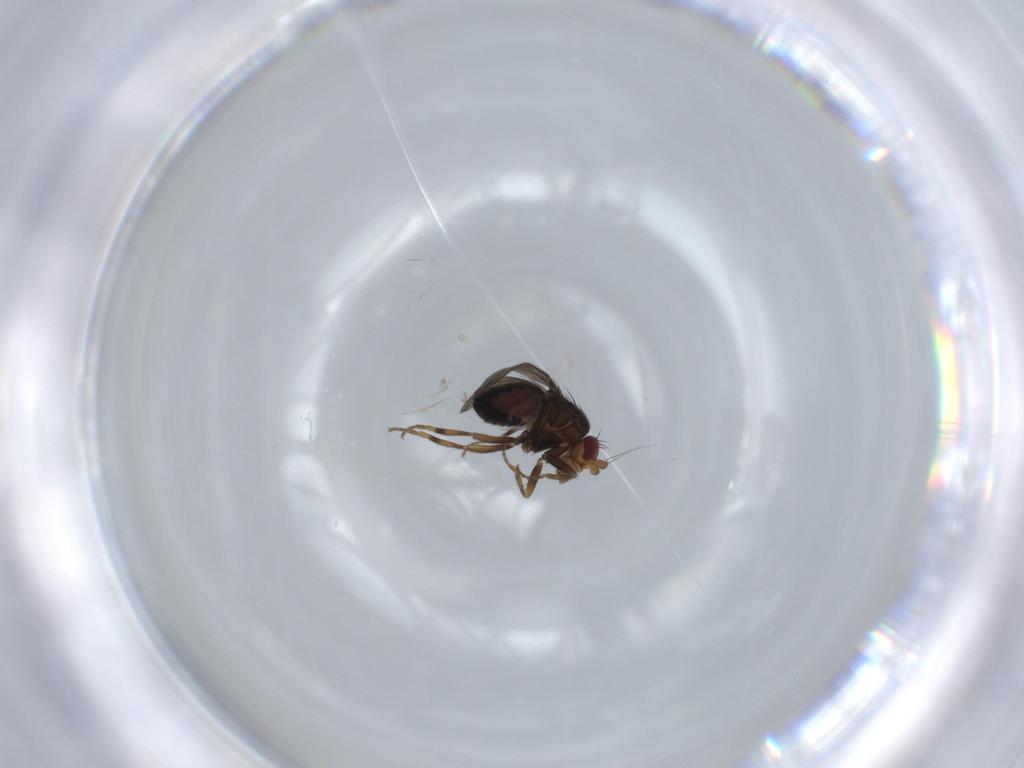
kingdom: Animalia
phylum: Arthropoda
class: Insecta
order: Diptera
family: Sphaeroceridae
